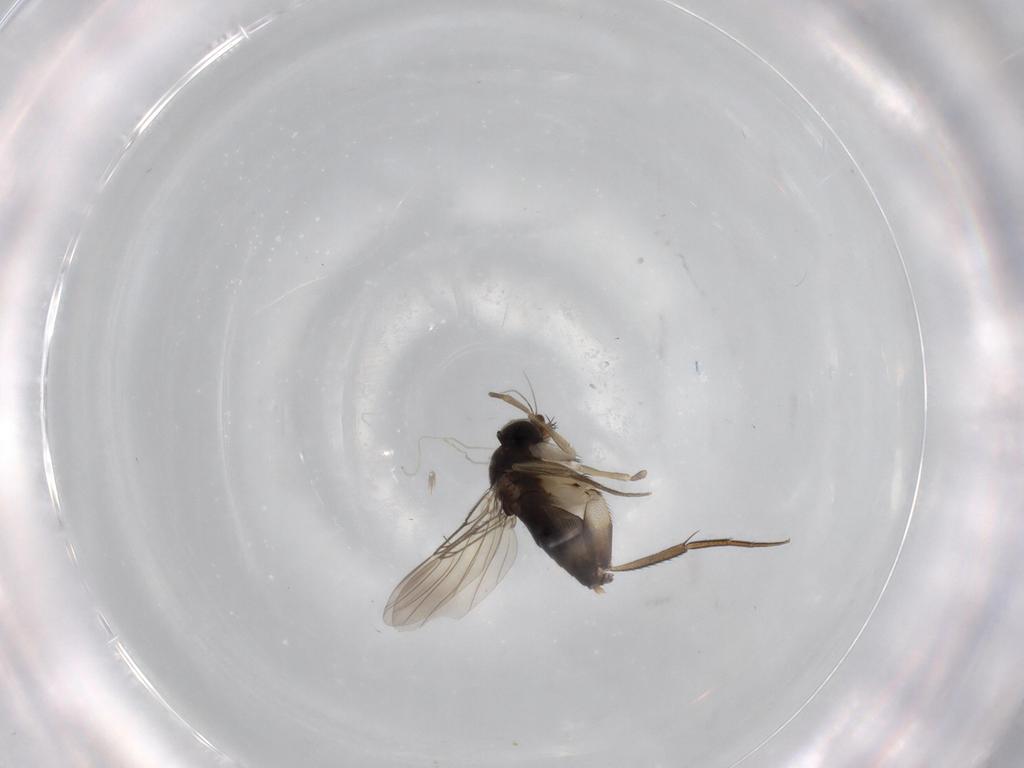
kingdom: Animalia
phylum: Arthropoda
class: Insecta
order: Diptera
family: Phoridae
